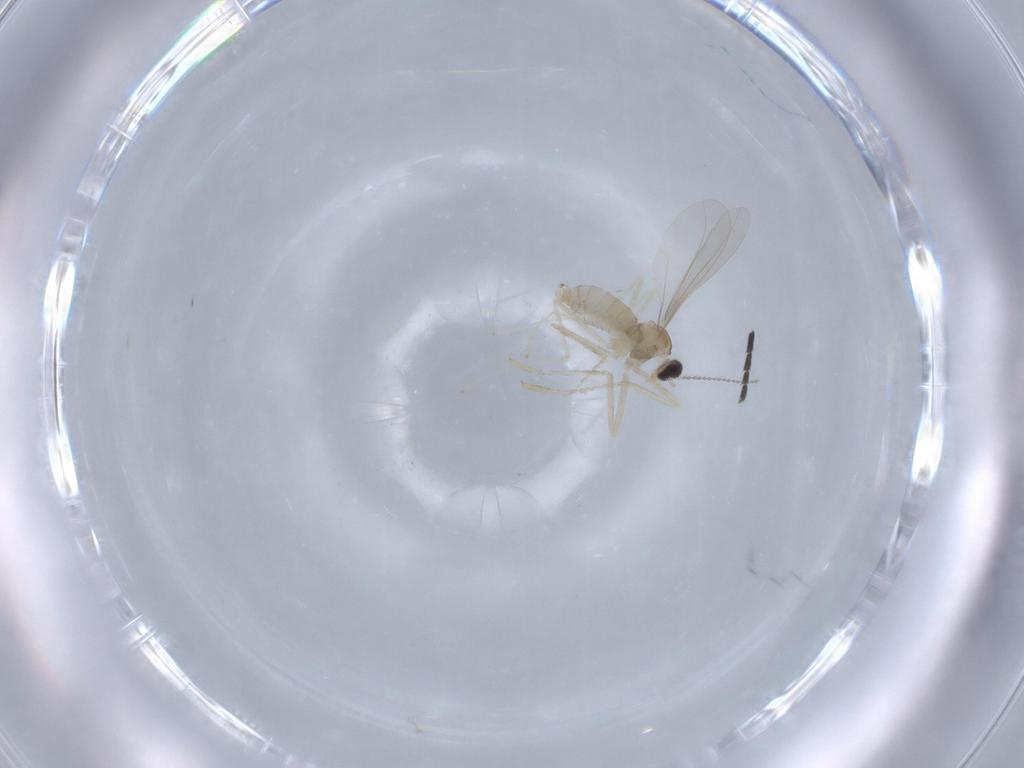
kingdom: Animalia
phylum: Arthropoda
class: Insecta
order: Diptera
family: Cecidomyiidae
